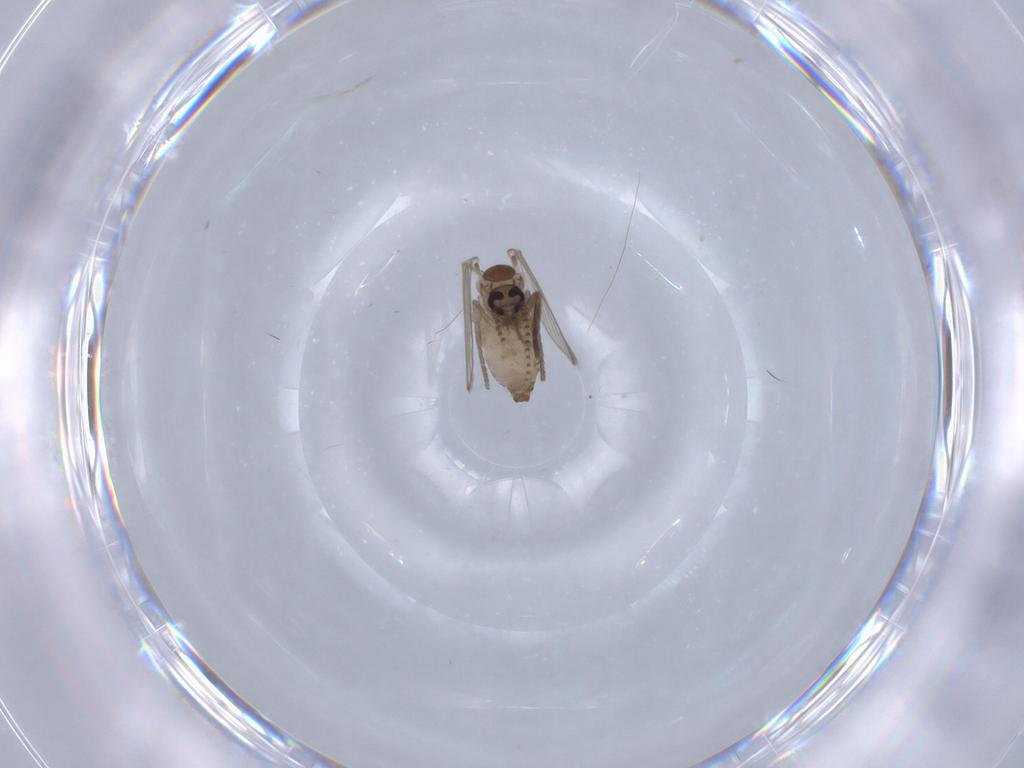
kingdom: Animalia
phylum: Arthropoda
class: Insecta
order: Diptera
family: Psychodidae
